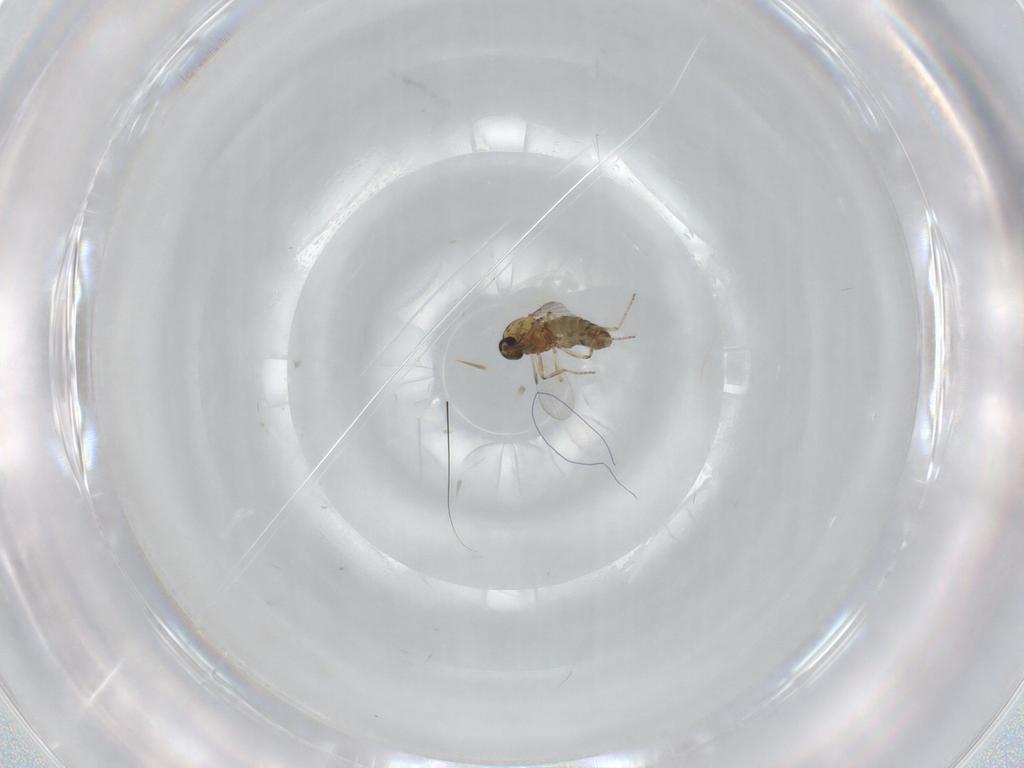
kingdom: Animalia
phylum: Arthropoda
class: Insecta
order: Diptera
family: Ceratopogonidae
